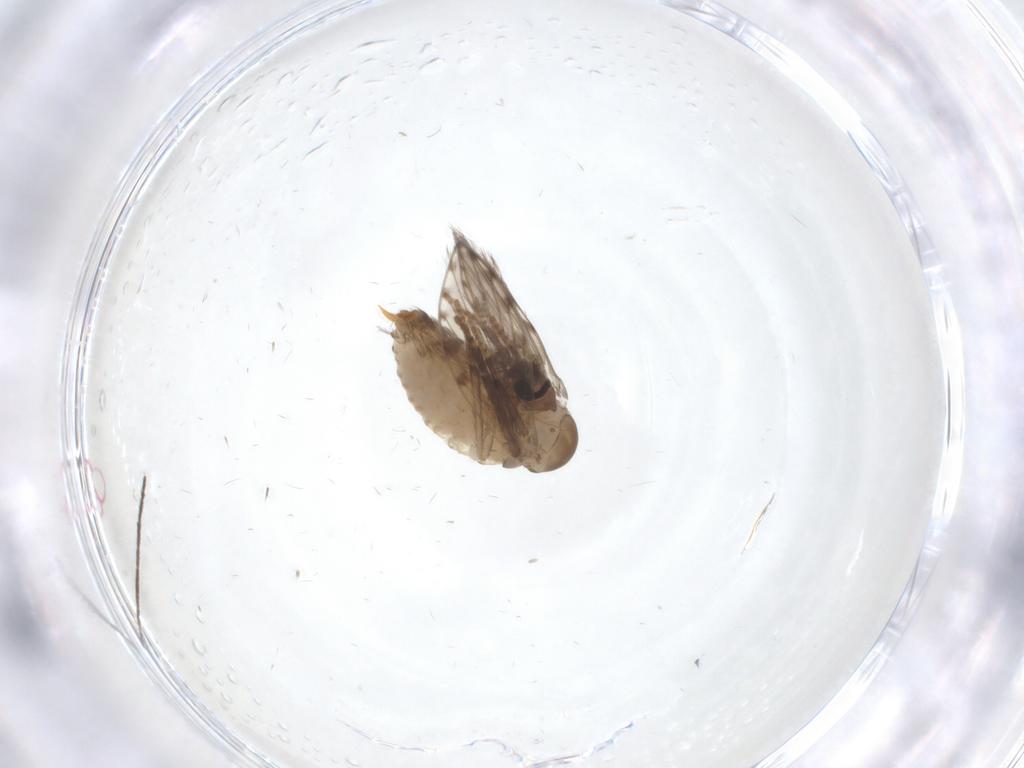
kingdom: Animalia
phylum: Arthropoda
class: Insecta
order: Diptera
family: Psychodidae
